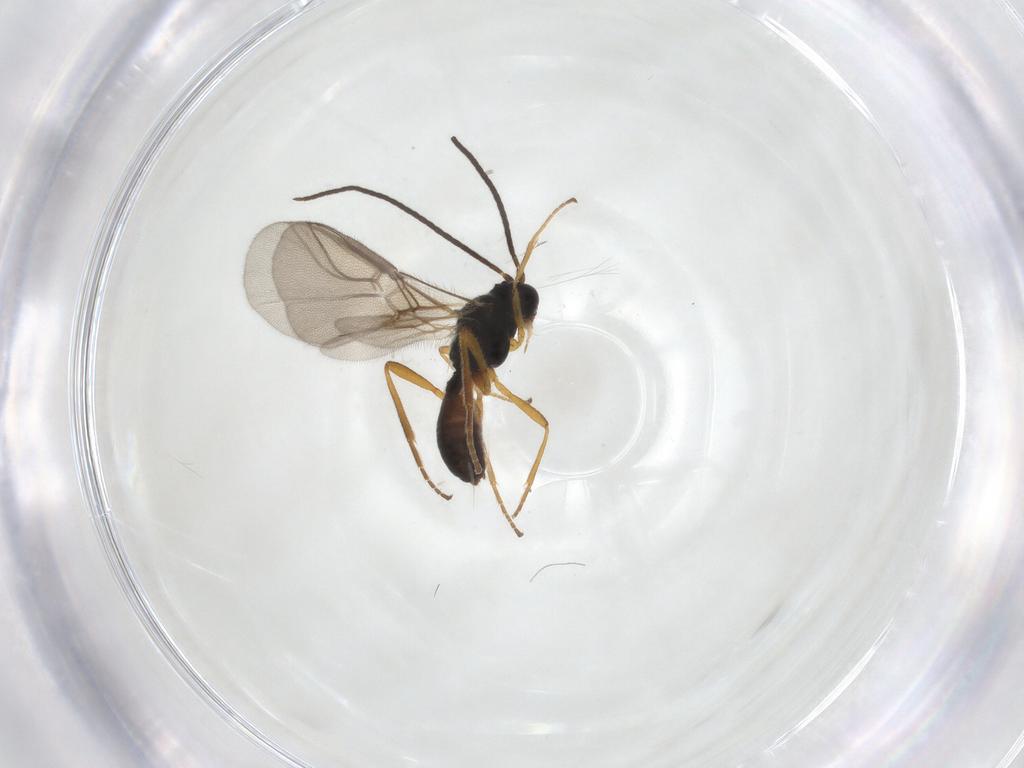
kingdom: Animalia
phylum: Arthropoda
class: Insecta
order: Hymenoptera
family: Braconidae
